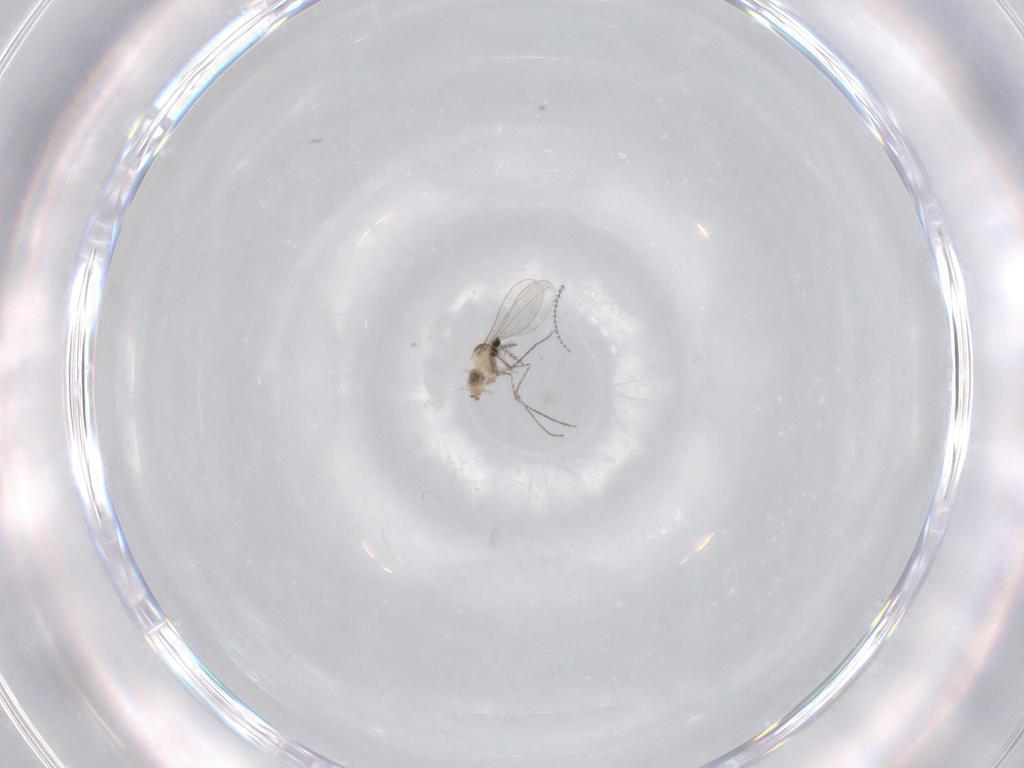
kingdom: Animalia
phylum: Arthropoda
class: Insecta
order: Diptera
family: Cecidomyiidae
